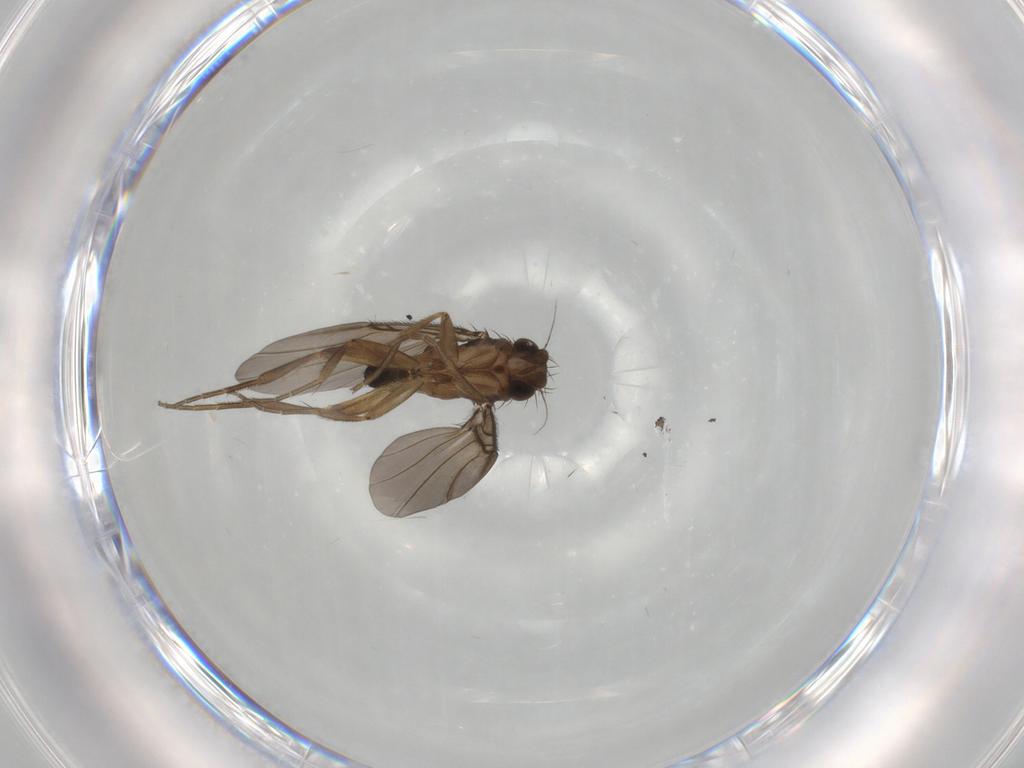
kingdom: Animalia
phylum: Arthropoda
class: Insecta
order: Diptera
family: Phoridae
